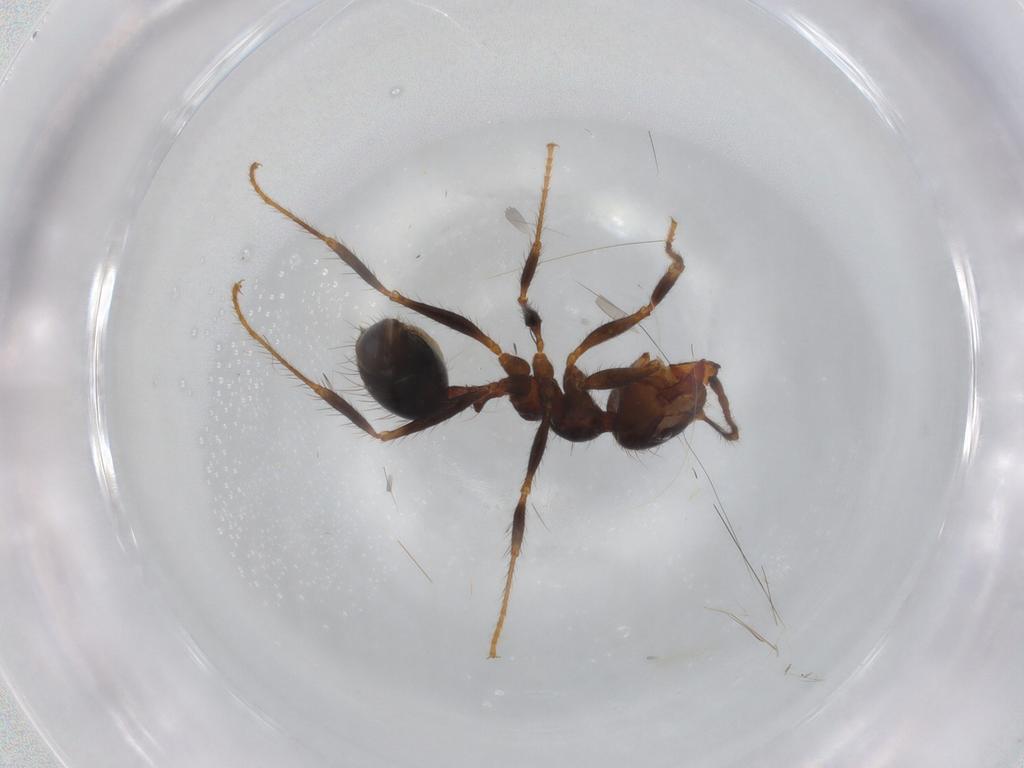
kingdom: Animalia
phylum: Arthropoda
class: Insecta
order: Hymenoptera
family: Formicidae
